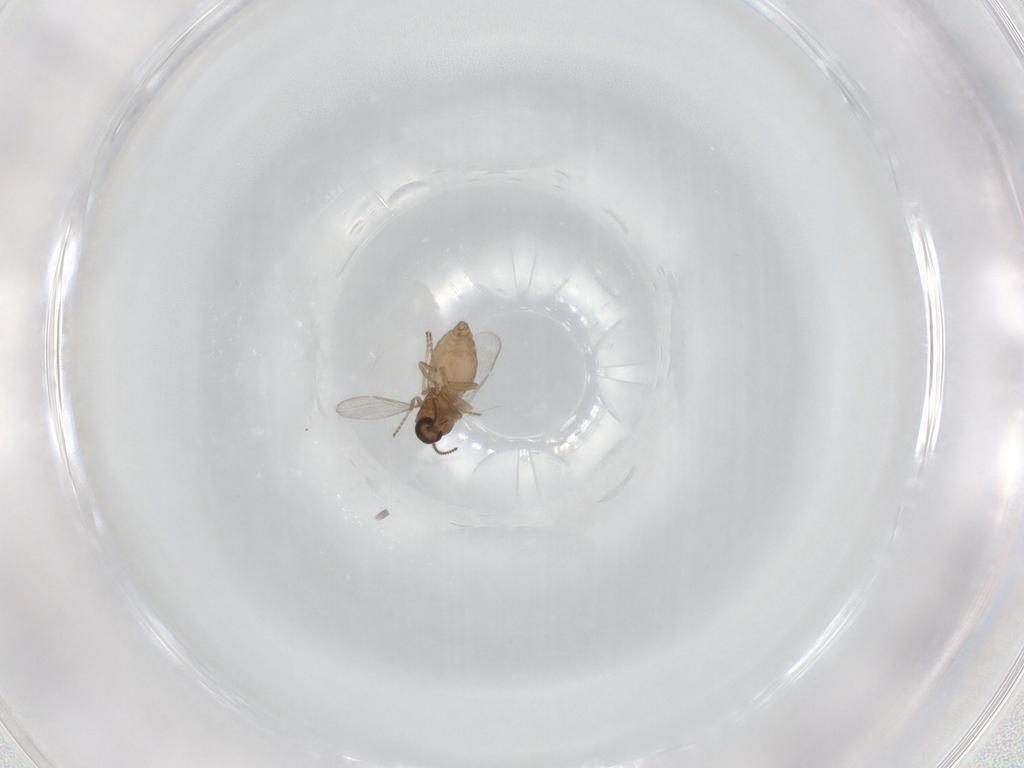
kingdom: Animalia
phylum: Arthropoda
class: Insecta
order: Diptera
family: Ceratopogonidae
